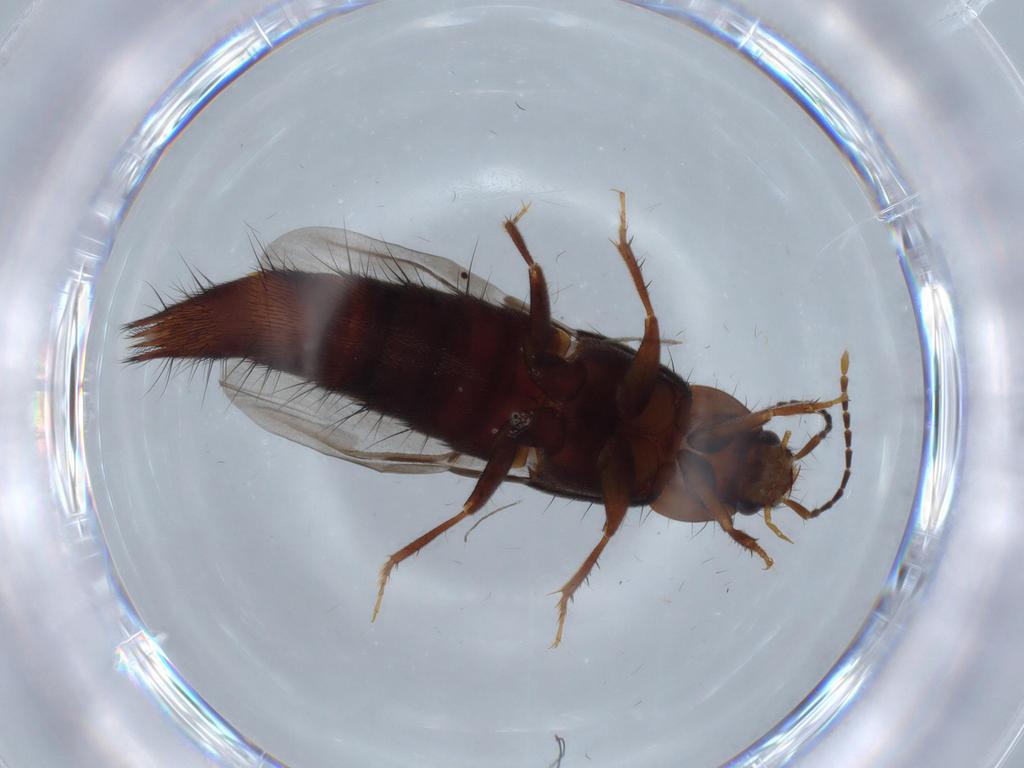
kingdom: Animalia
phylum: Arthropoda
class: Insecta
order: Coleoptera
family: Staphylinidae
